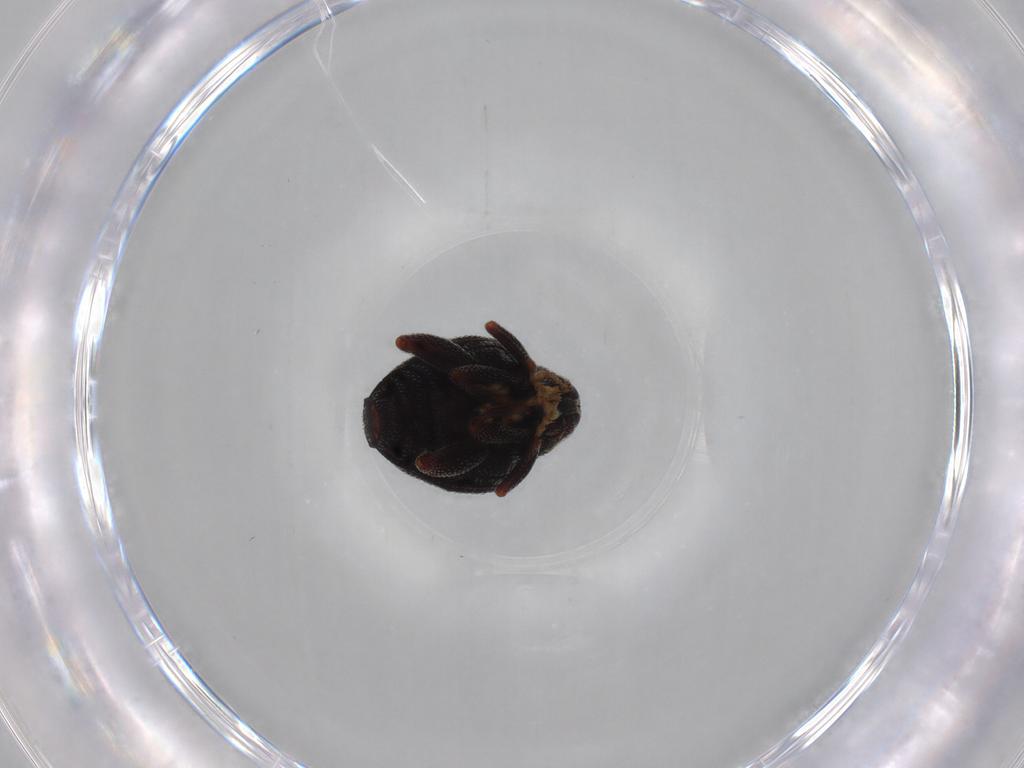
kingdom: Animalia
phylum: Arthropoda
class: Insecta
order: Coleoptera
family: Curculionidae
